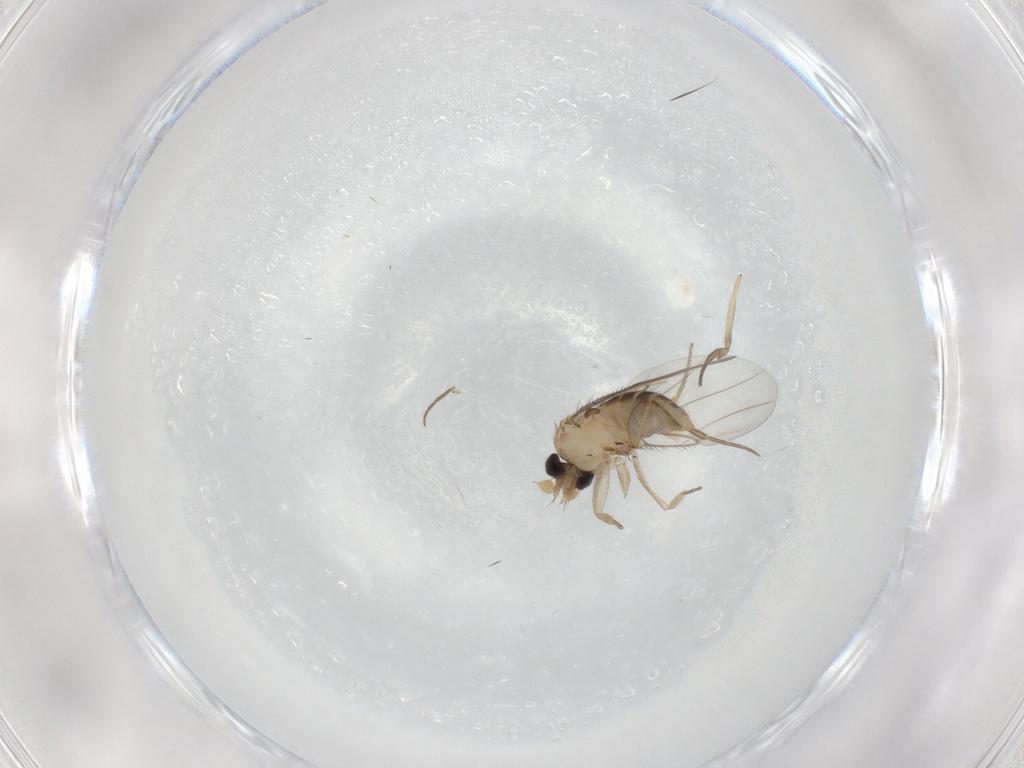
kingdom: Animalia
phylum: Arthropoda
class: Insecta
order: Diptera
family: Phoridae
